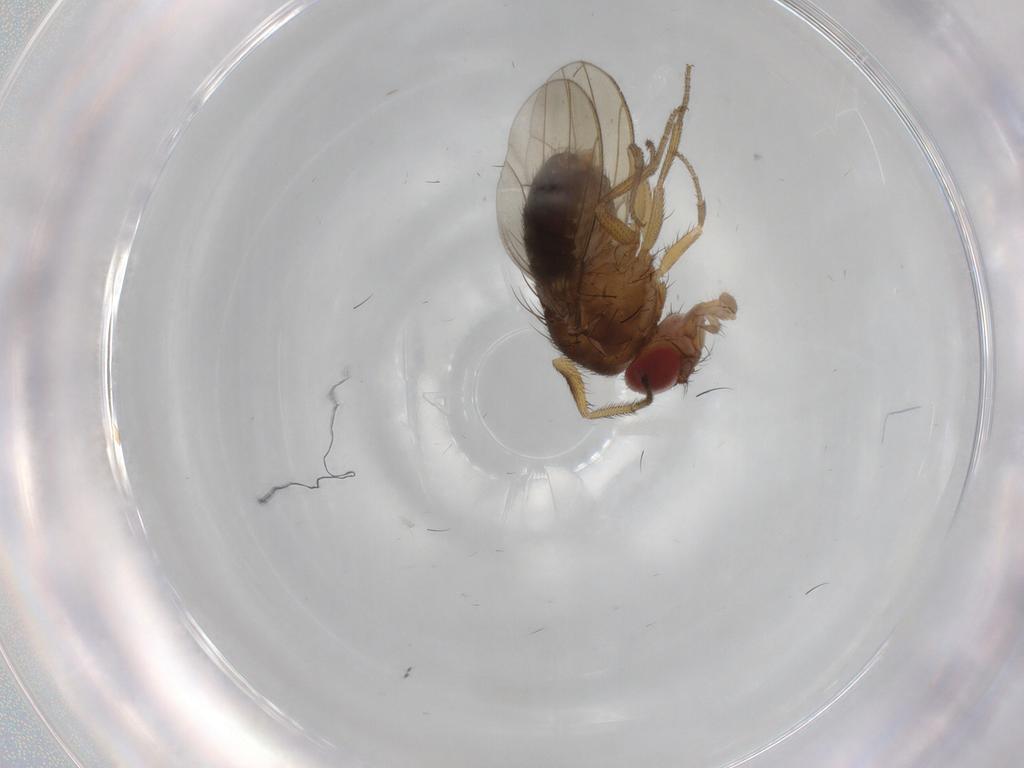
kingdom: Animalia
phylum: Arthropoda
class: Insecta
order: Diptera
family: Drosophilidae
